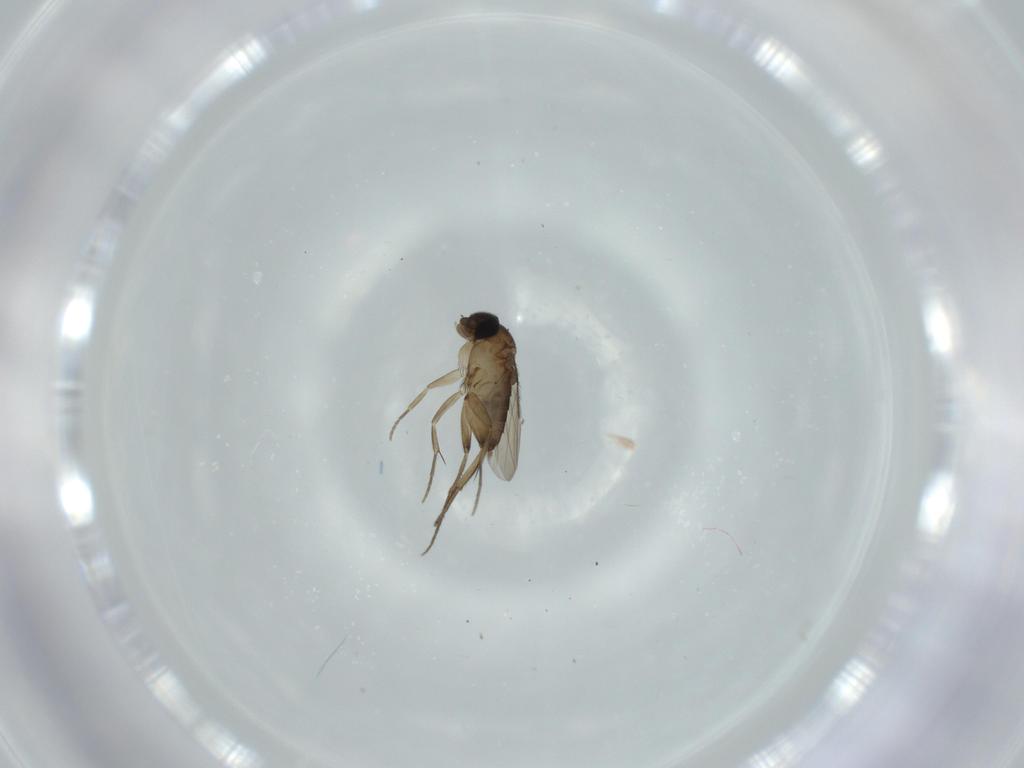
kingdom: Animalia
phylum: Arthropoda
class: Insecta
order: Diptera
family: Phoridae
